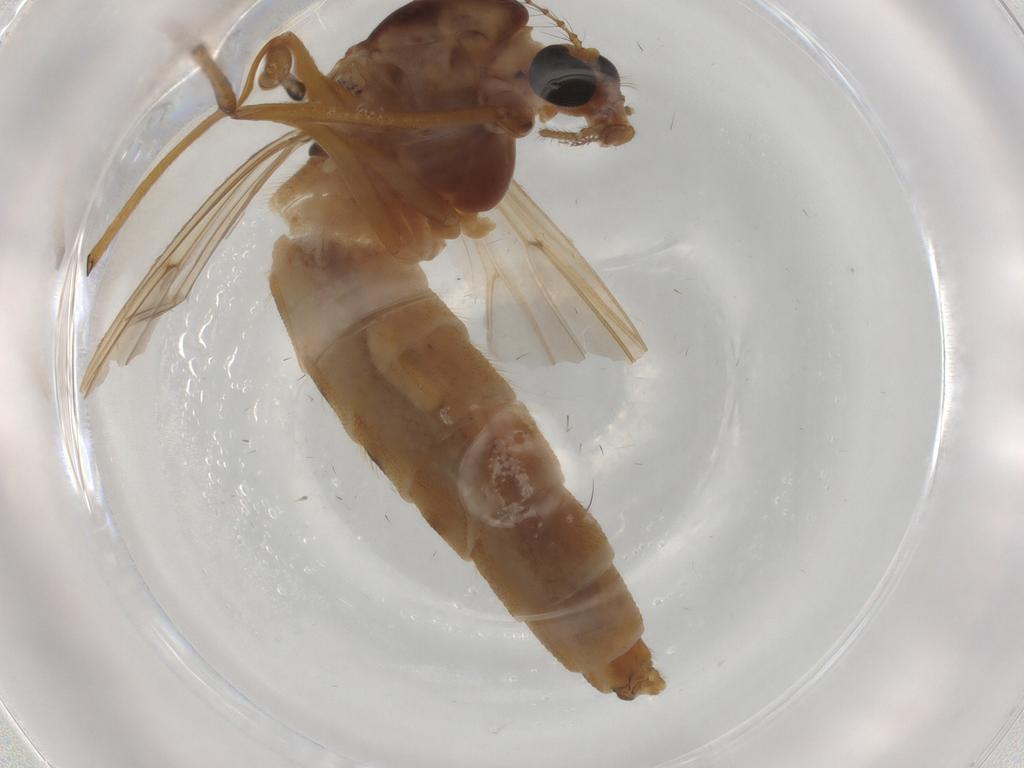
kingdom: Animalia
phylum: Arthropoda
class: Insecta
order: Diptera
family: Chironomidae
